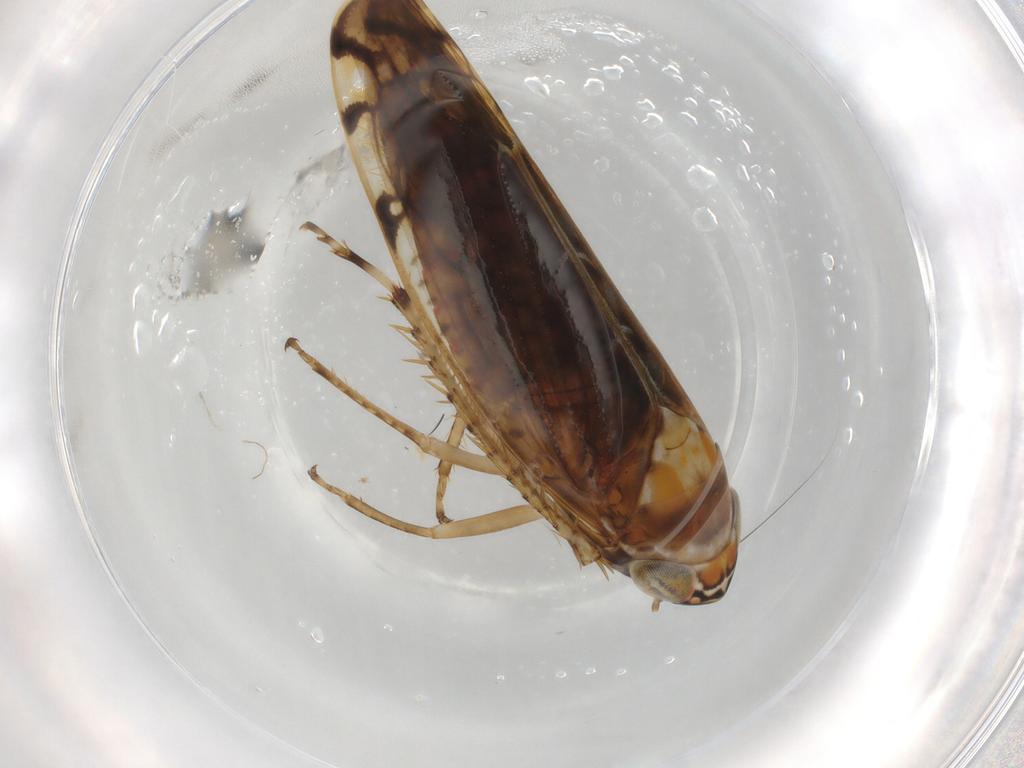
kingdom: Animalia
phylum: Arthropoda
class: Insecta
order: Hemiptera
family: Cicadellidae
